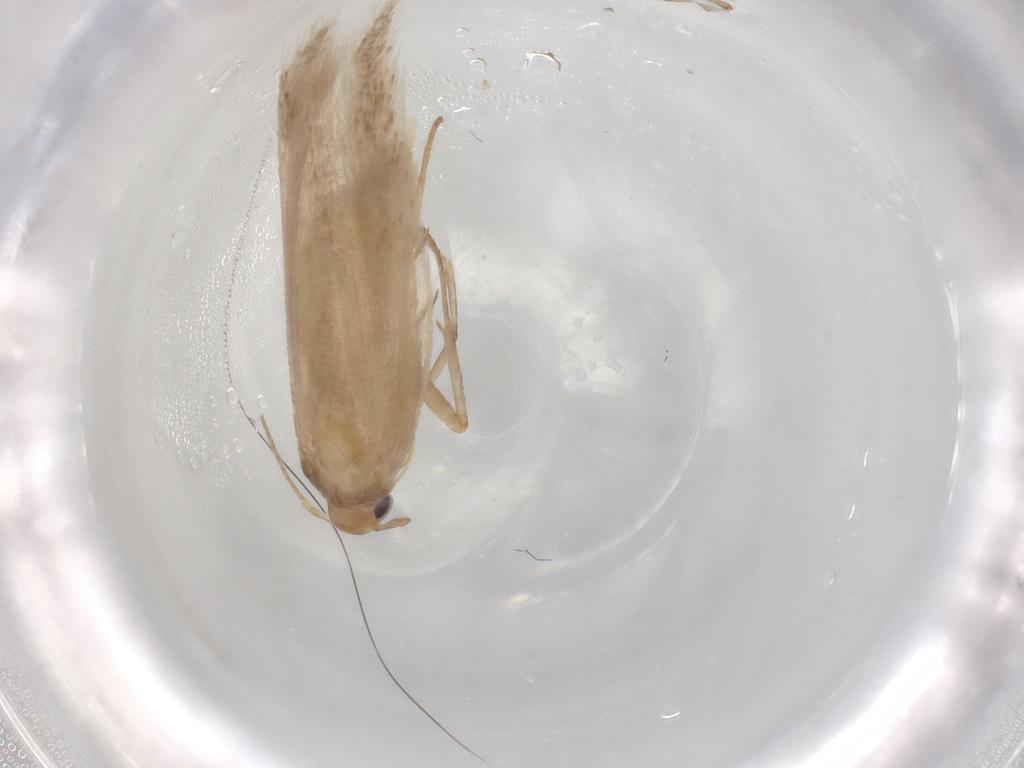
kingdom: Animalia
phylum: Arthropoda
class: Insecta
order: Lepidoptera
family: Gelechiidae
